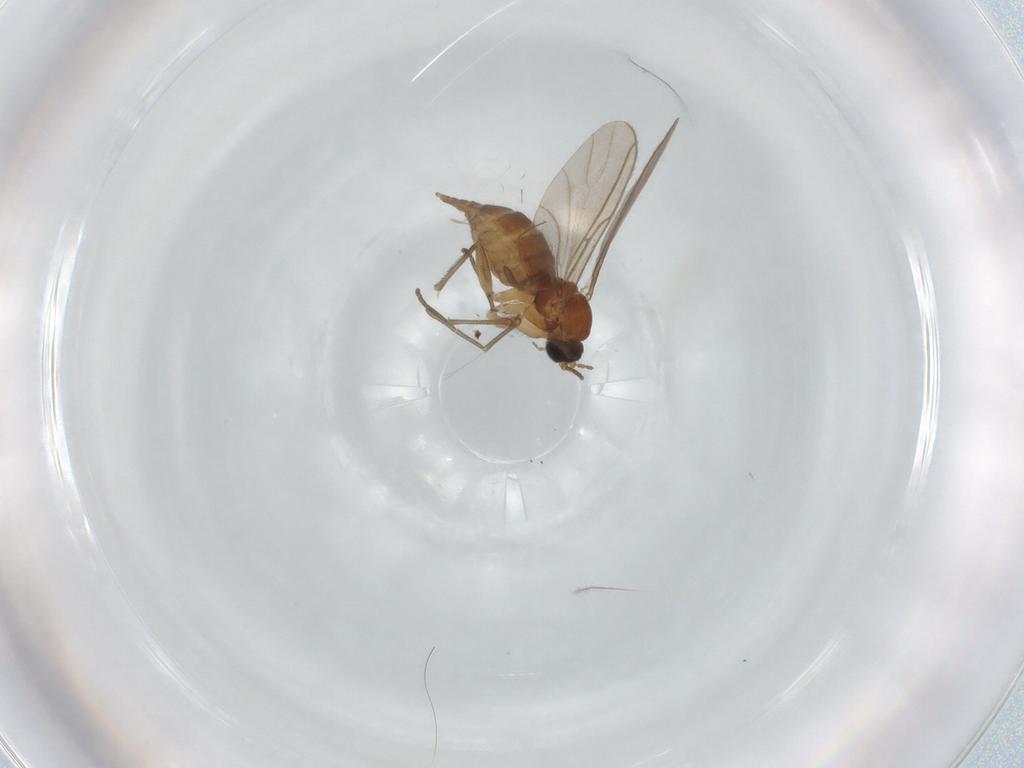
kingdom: Animalia
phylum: Arthropoda
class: Insecta
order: Diptera
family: Sciaridae
